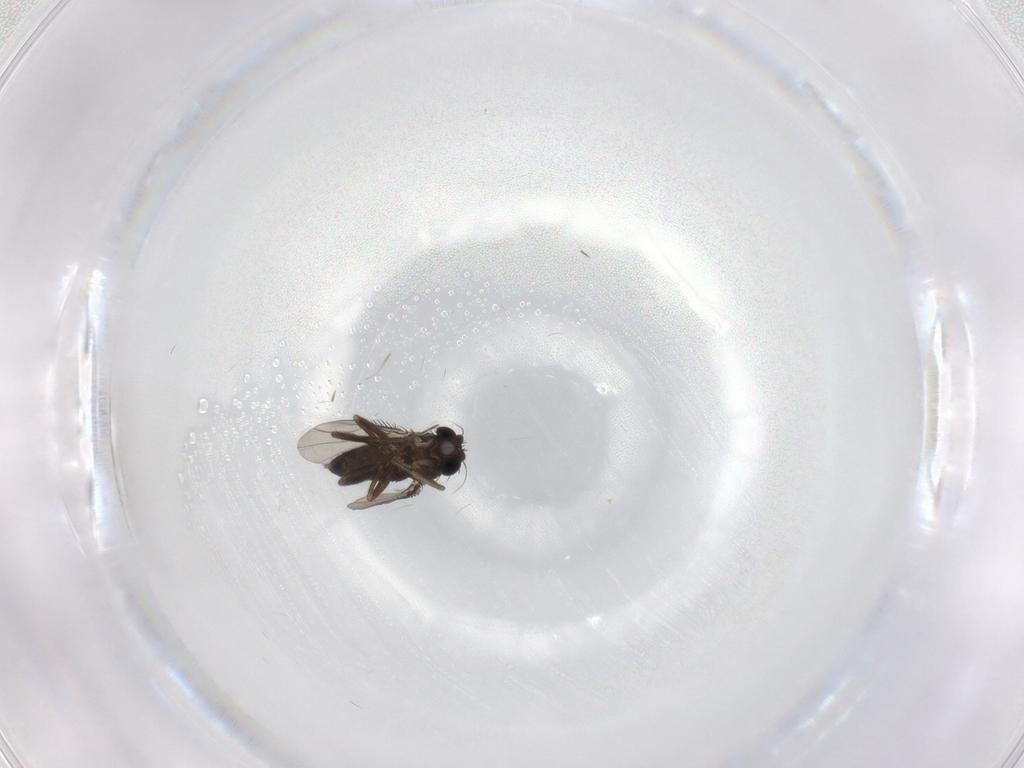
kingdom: Animalia
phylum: Arthropoda
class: Insecta
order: Diptera
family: Phoridae
